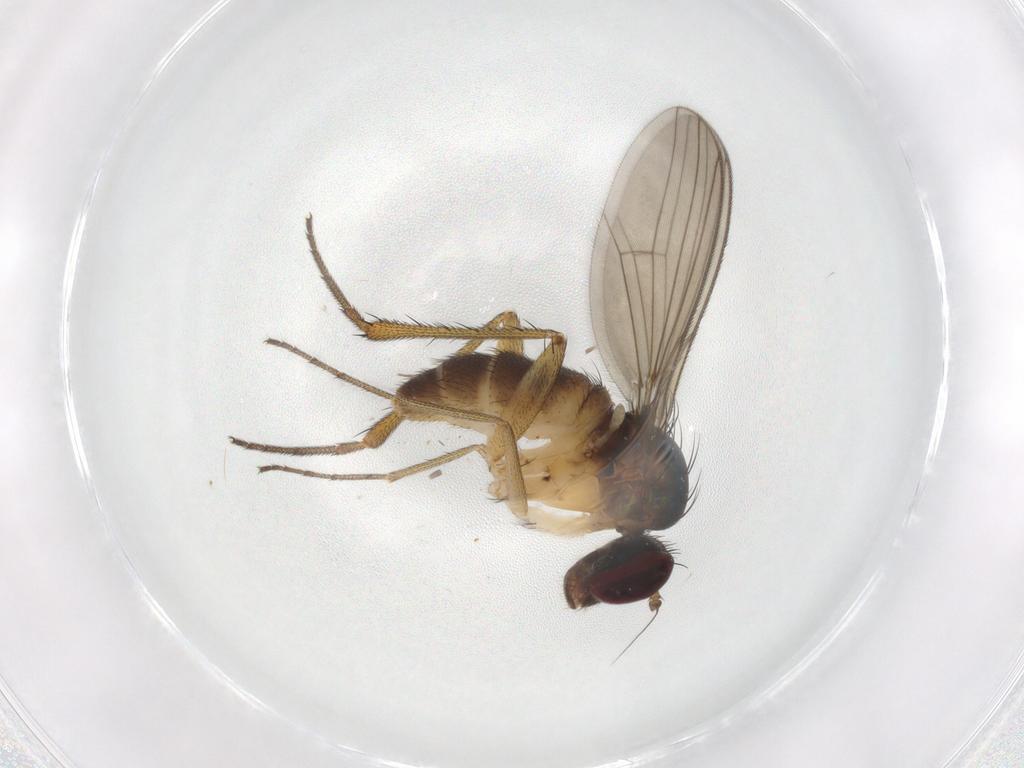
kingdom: Animalia
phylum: Arthropoda
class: Insecta
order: Diptera
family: Dolichopodidae
